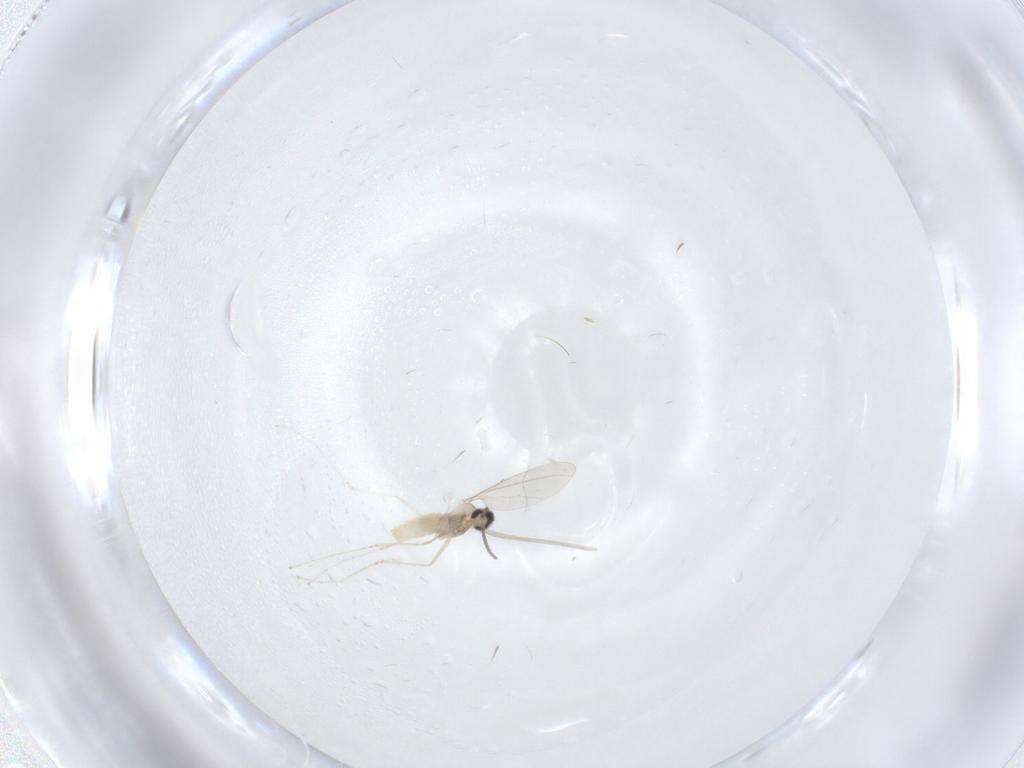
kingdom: Animalia
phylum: Arthropoda
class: Insecta
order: Diptera
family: Cecidomyiidae
